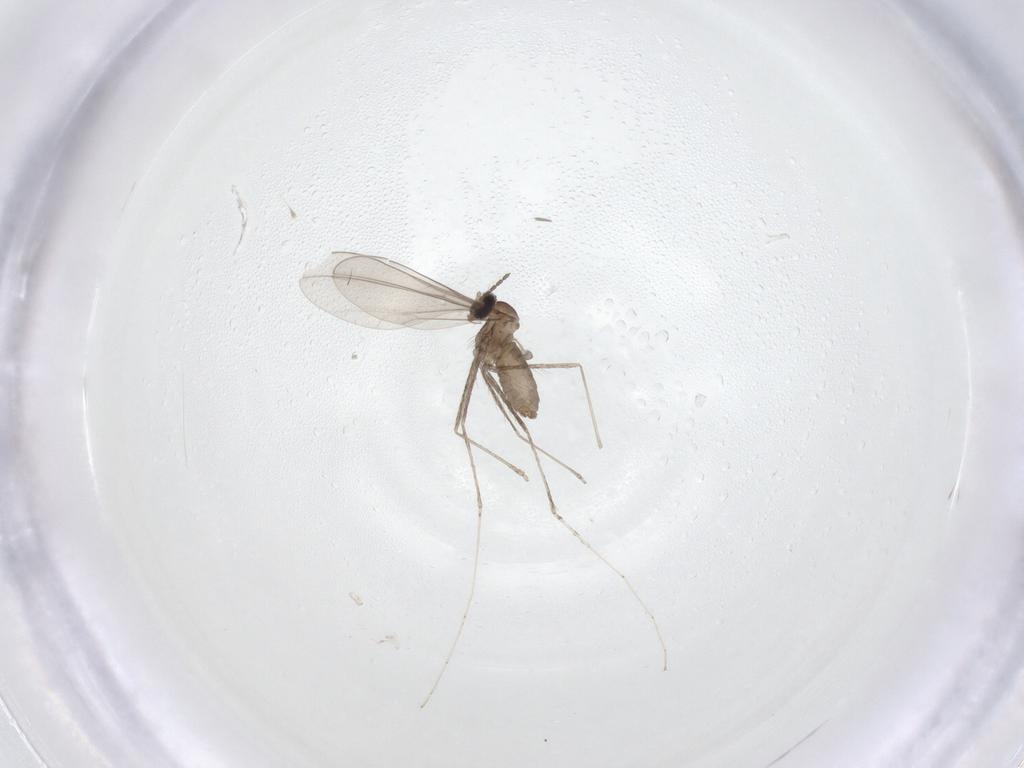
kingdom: Animalia
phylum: Arthropoda
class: Insecta
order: Diptera
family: Cecidomyiidae
